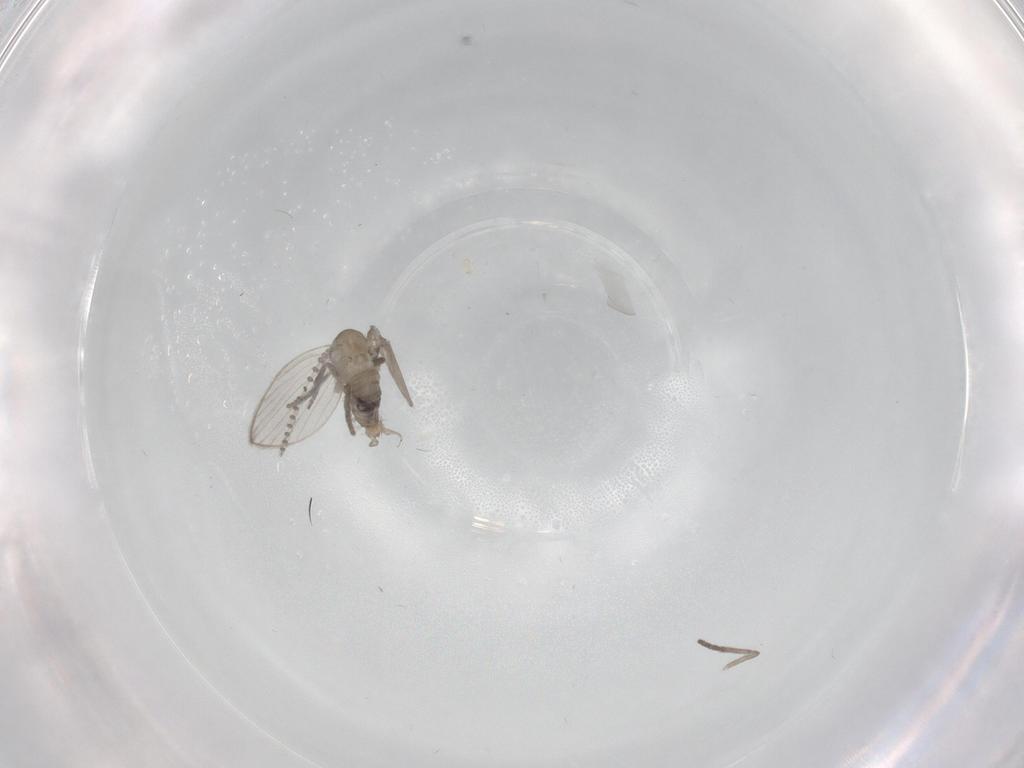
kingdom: Animalia
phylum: Arthropoda
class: Insecta
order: Diptera
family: Psychodidae
